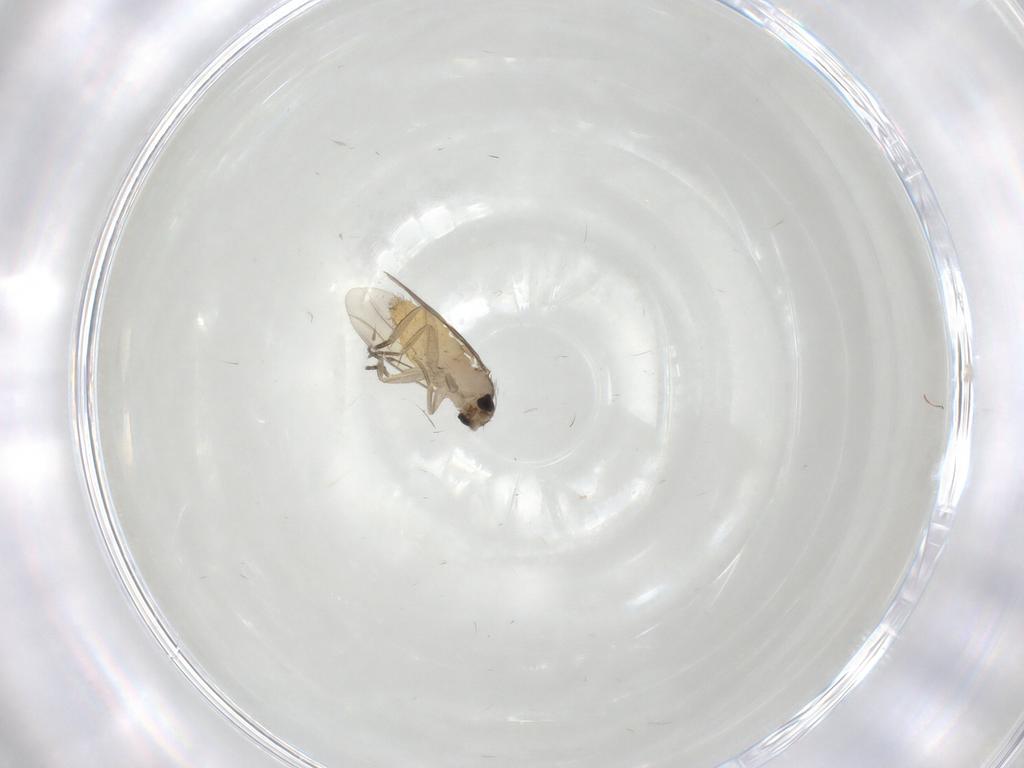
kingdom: Animalia
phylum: Arthropoda
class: Insecta
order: Diptera
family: Cecidomyiidae
